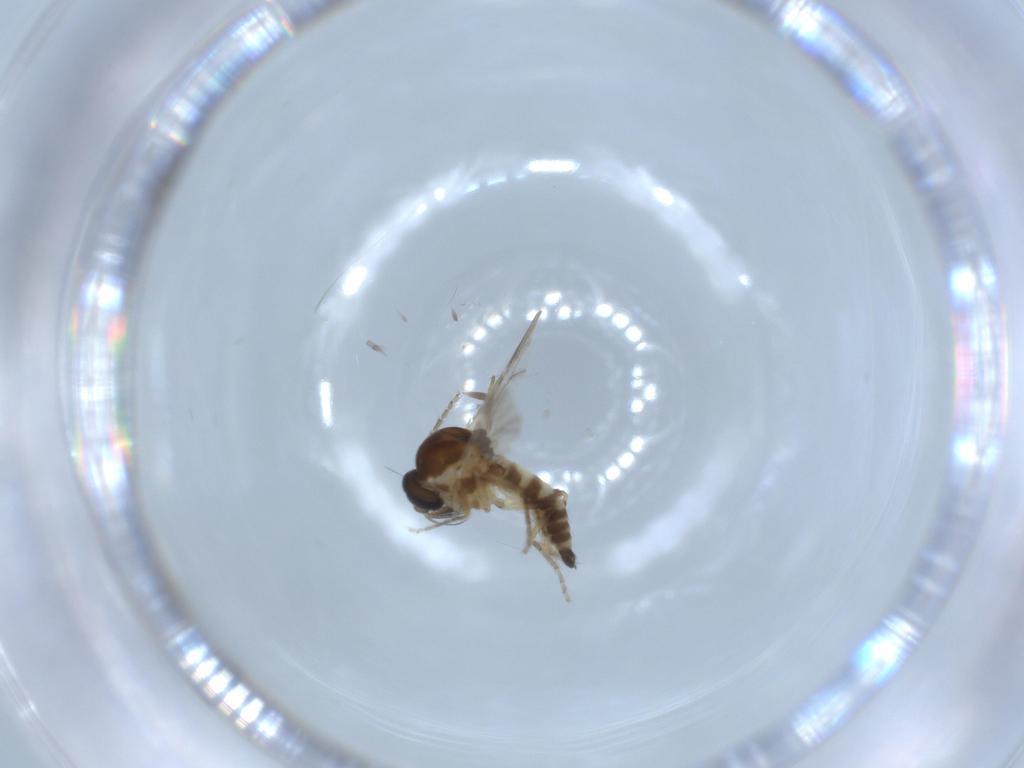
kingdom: Animalia
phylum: Arthropoda
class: Insecta
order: Diptera
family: Ceratopogonidae
